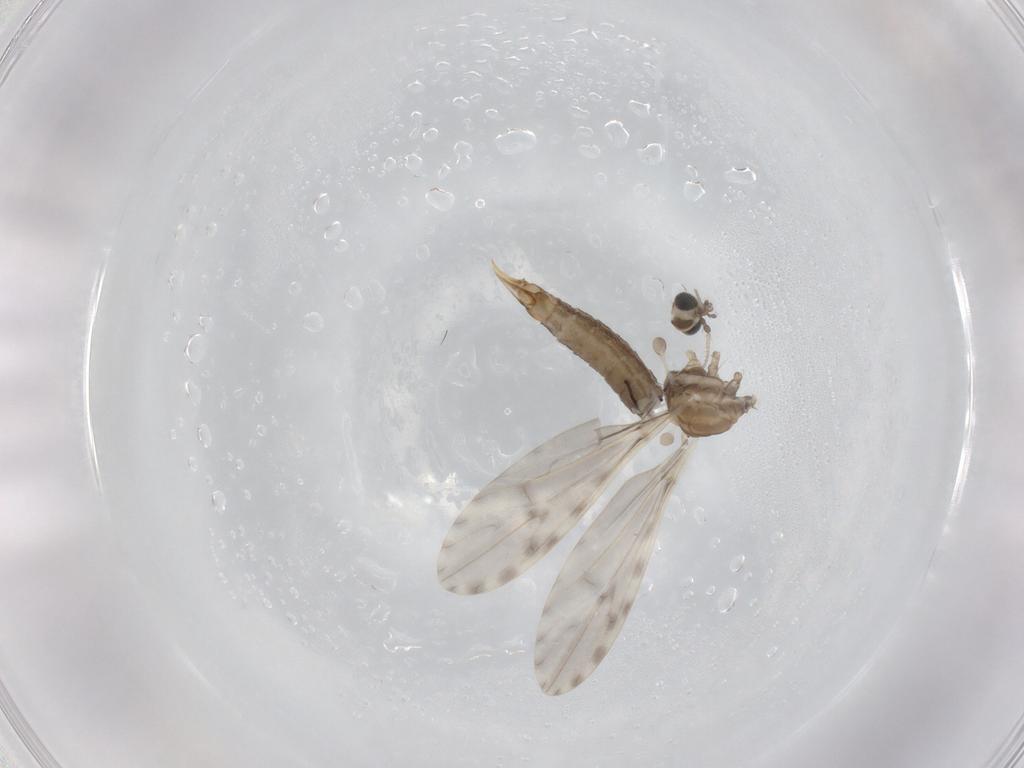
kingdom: Animalia
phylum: Arthropoda
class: Insecta
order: Diptera
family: Limoniidae
